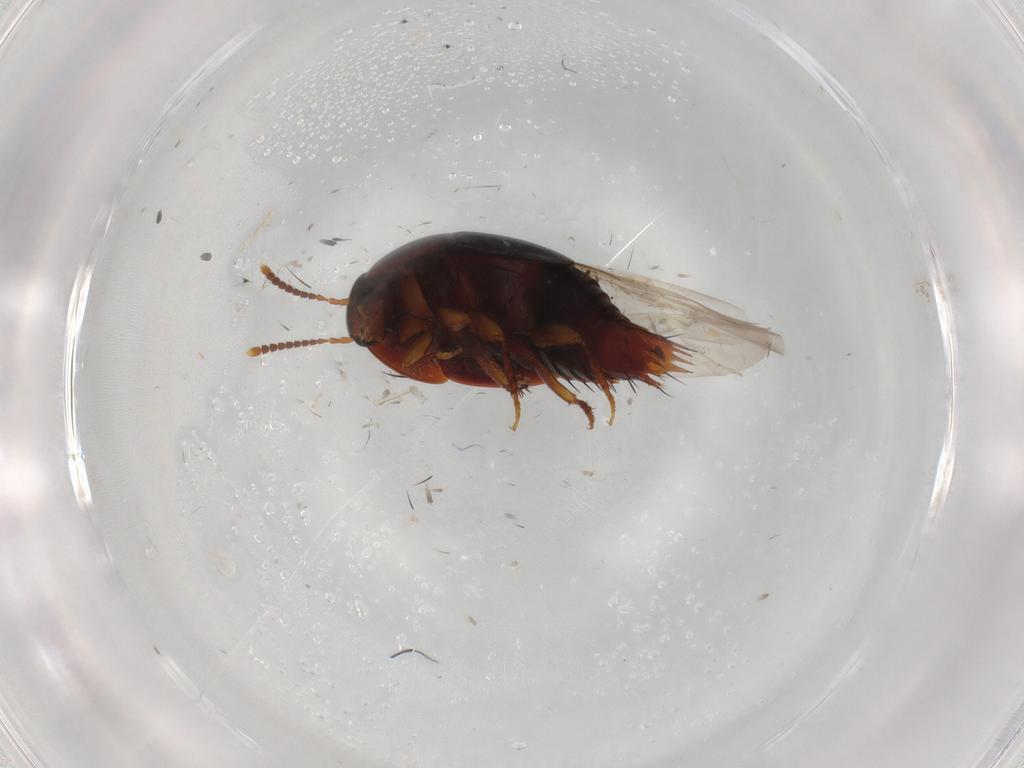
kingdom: Animalia
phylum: Arthropoda
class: Insecta
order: Coleoptera
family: Staphylinidae
